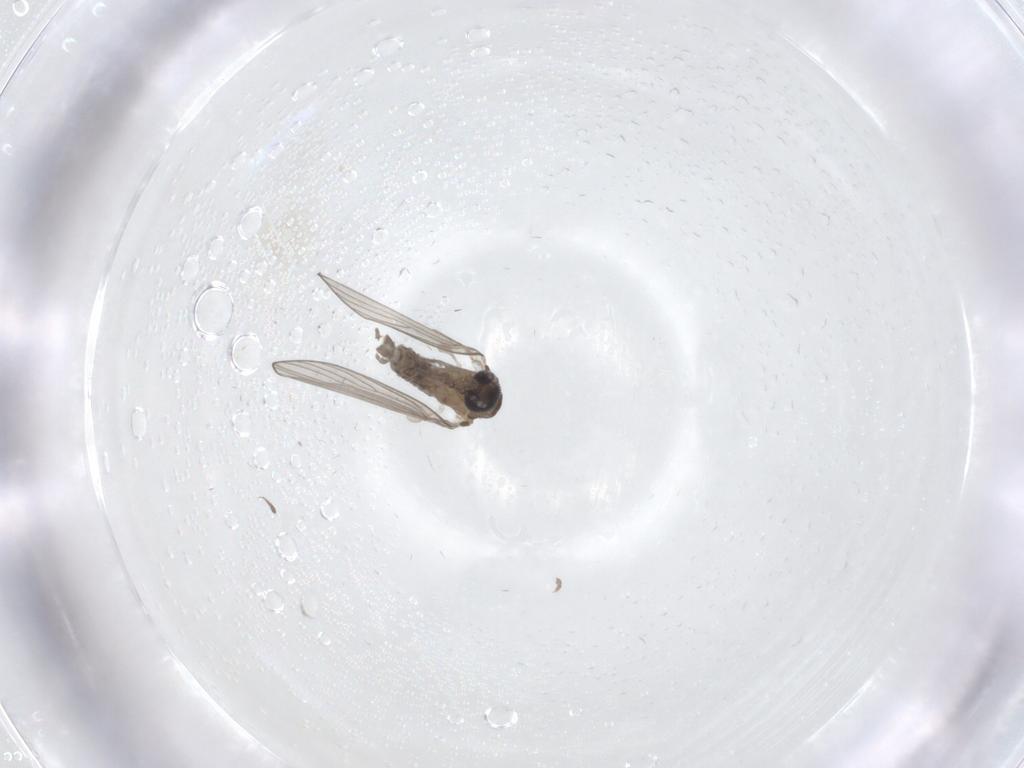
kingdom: Animalia
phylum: Arthropoda
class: Insecta
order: Diptera
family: Psychodidae
